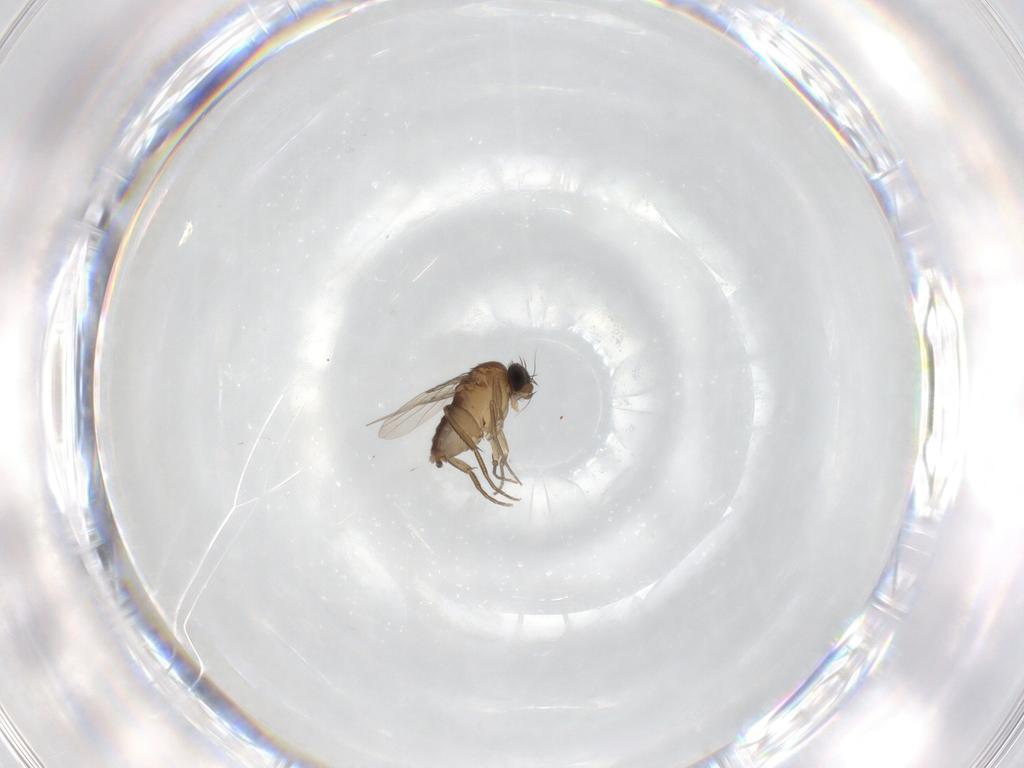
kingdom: Animalia
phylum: Arthropoda
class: Insecta
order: Diptera
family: Phoridae
